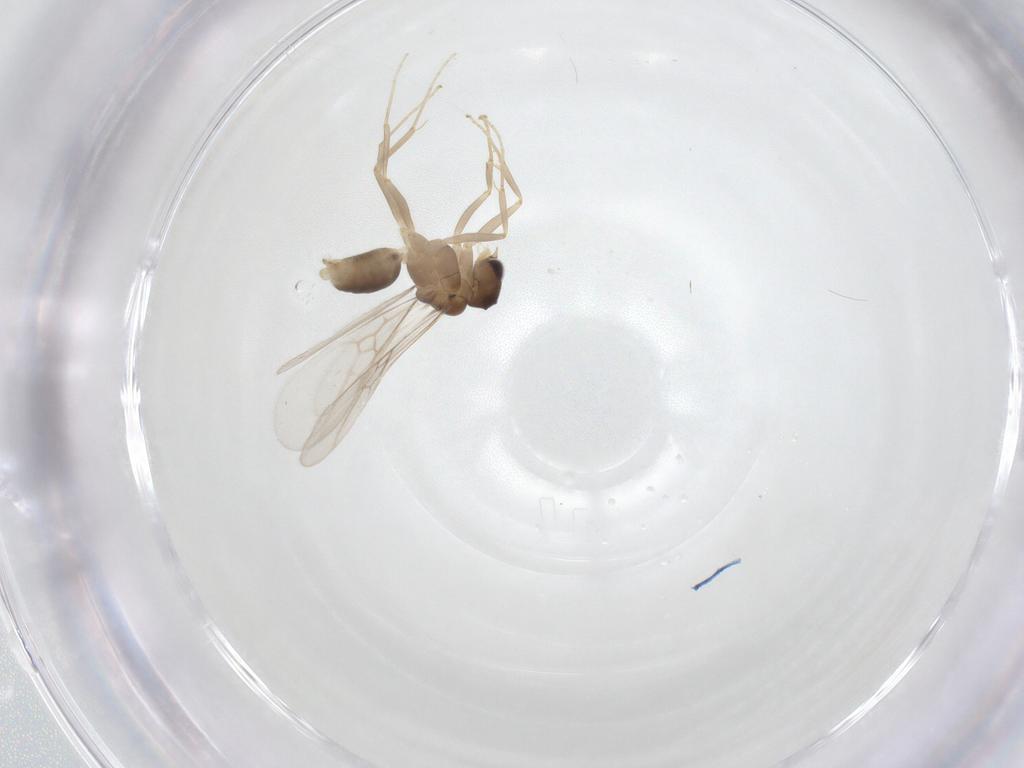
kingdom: Animalia
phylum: Arthropoda
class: Insecta
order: Hymenoptera
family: Formicidae
